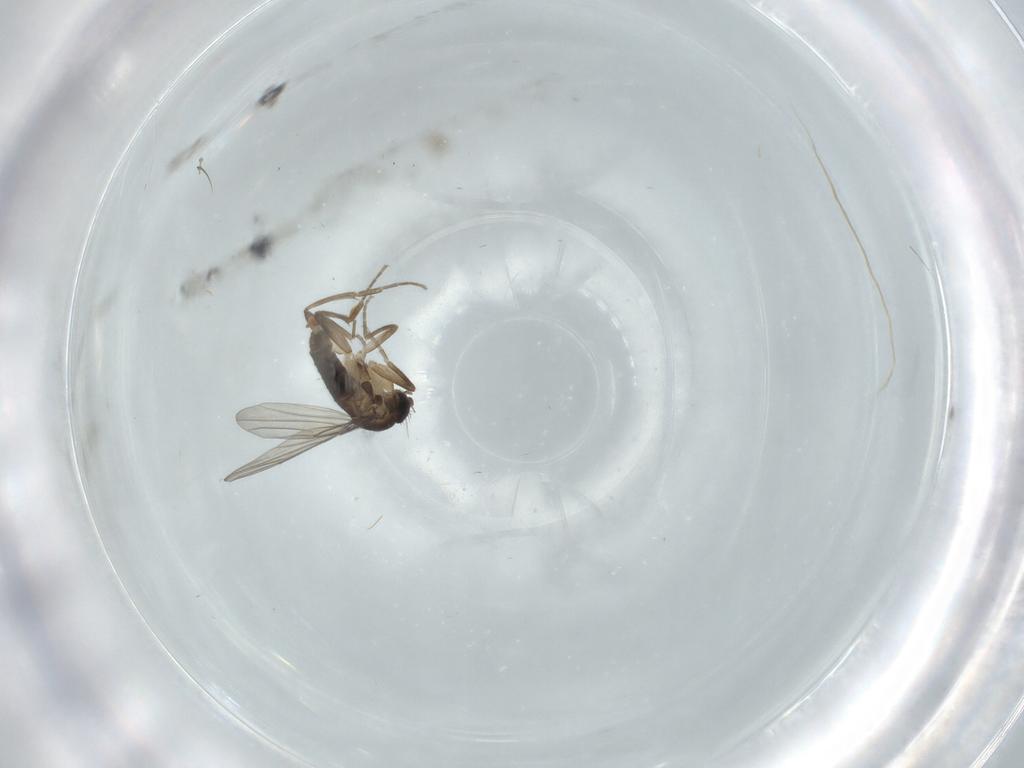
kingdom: Animalia
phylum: Arthropoda
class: Insecta
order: Diptera
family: Phoridae
